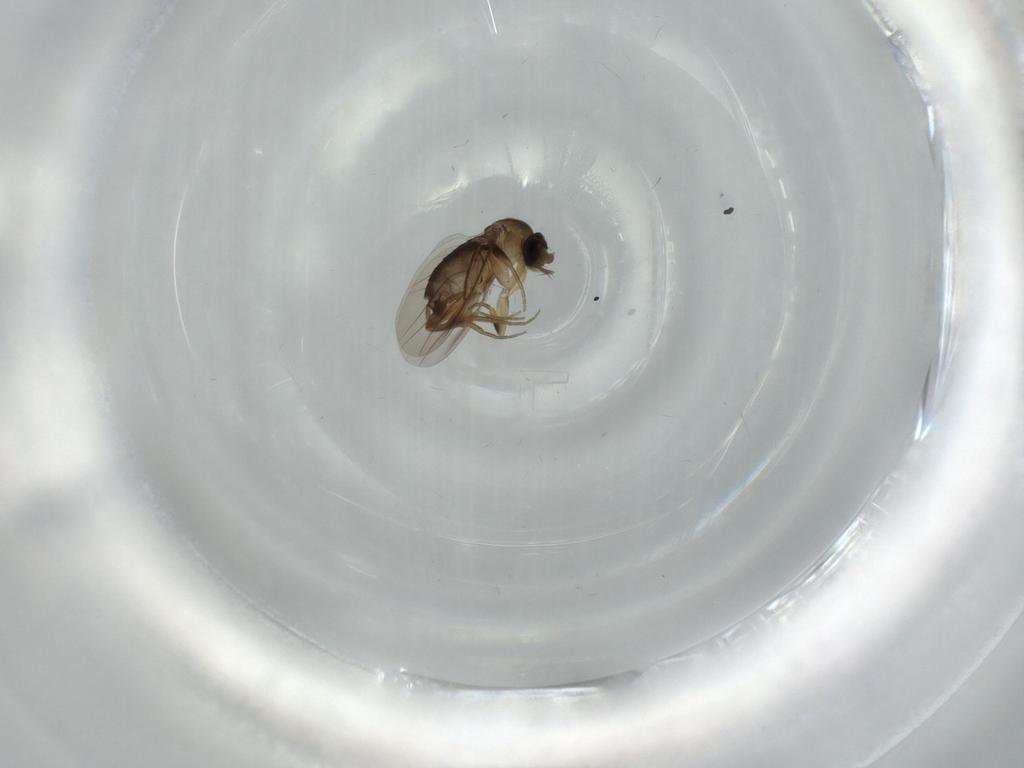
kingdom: Animalia
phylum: Arthropoda
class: Insecta
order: Diptera
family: Phoridae
